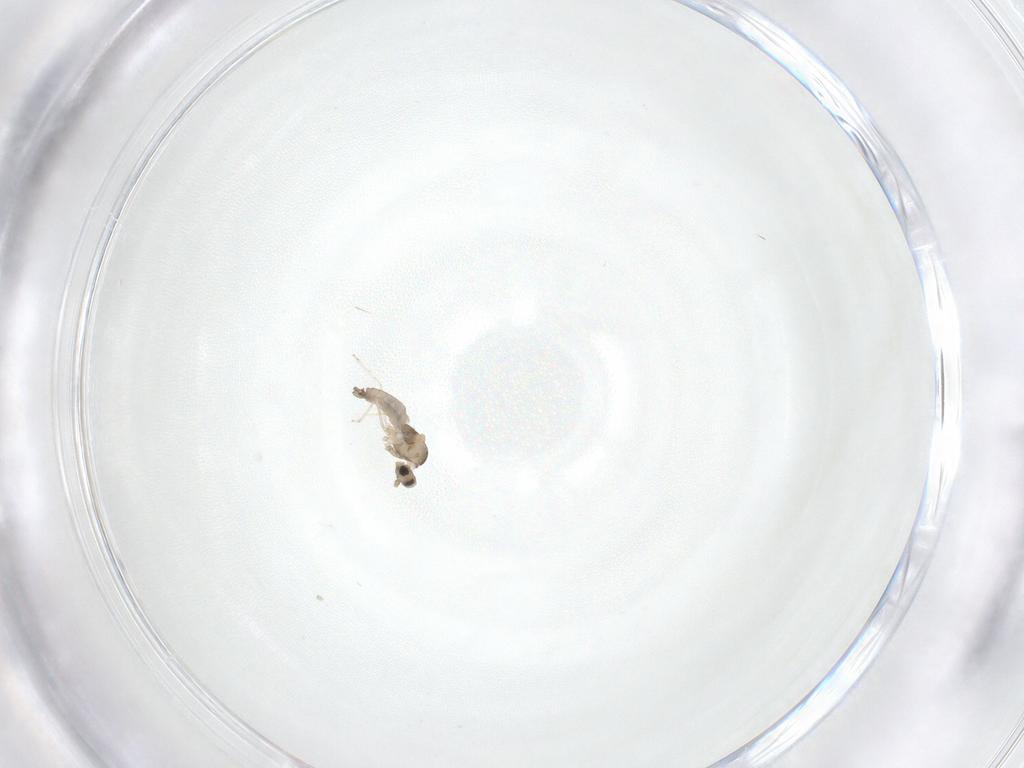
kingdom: Animalia
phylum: Arthropoda
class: Insecta
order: Diptera
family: Cecidomyiidae
